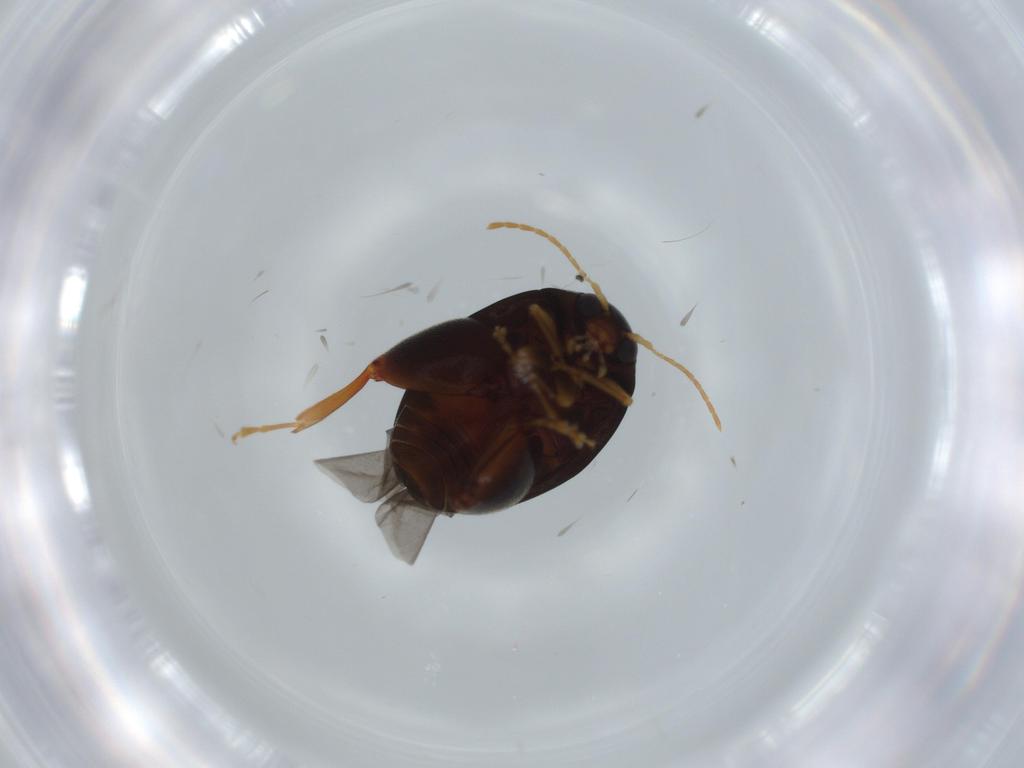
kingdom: Animalia
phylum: Arthropoda
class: Insecta
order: Coleoptera
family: Chrysomelidae
